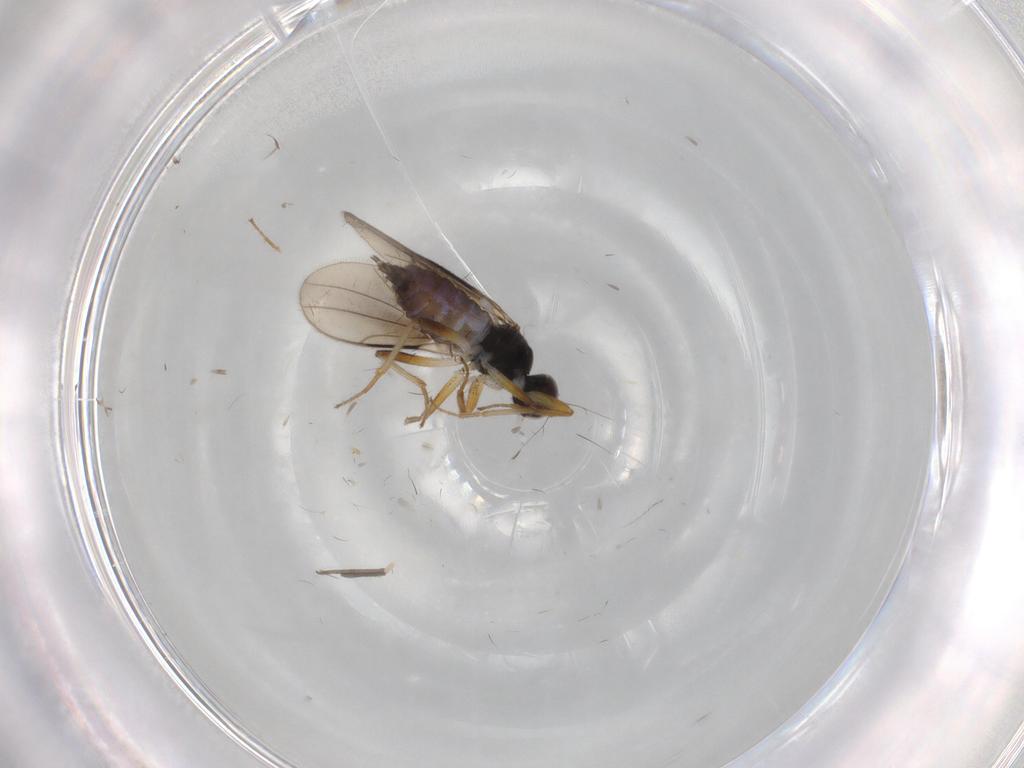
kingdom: Animalia
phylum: Arthropoda
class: Insecta
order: Diptera
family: Hybotidae
